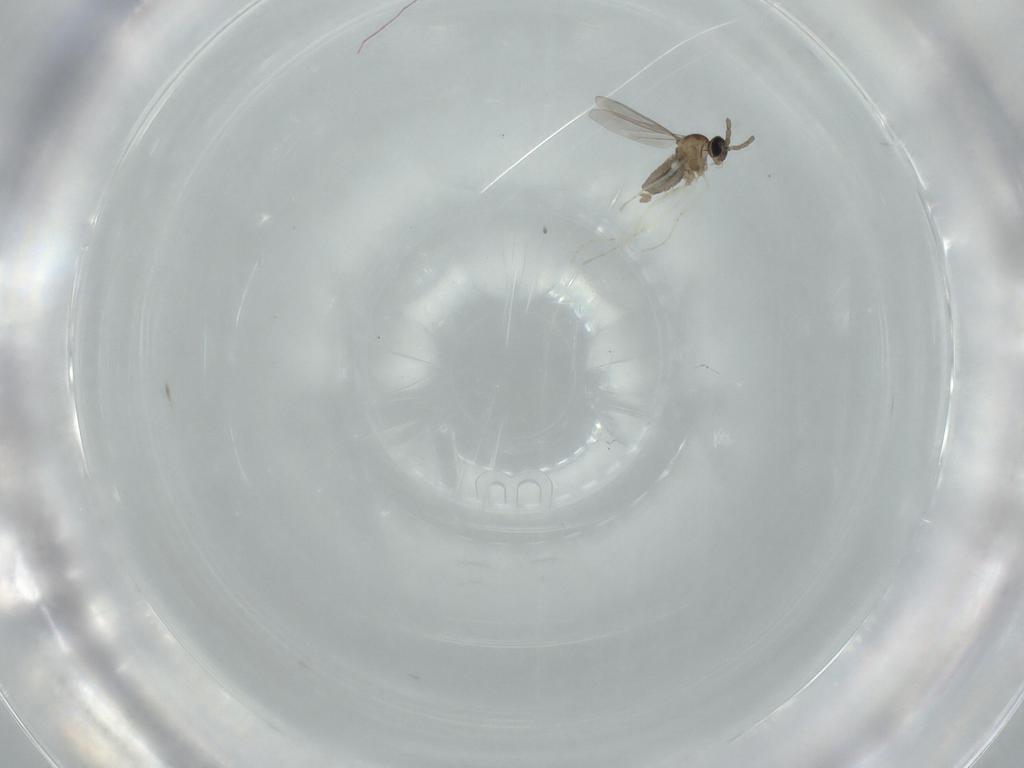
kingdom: Animalia
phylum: Arthropoda
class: Insecta
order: Diptera
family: Cecidomyiidae
